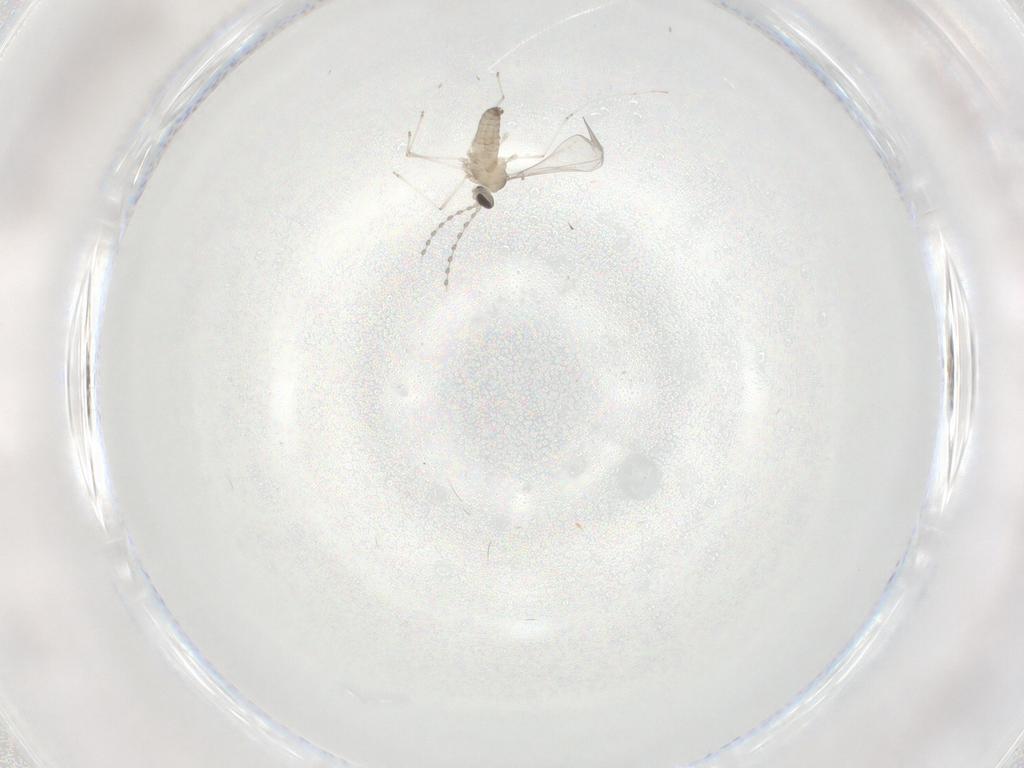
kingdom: Animalia
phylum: Arthropoda
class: Insecta
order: Diptera
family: Cecidomyiidae
